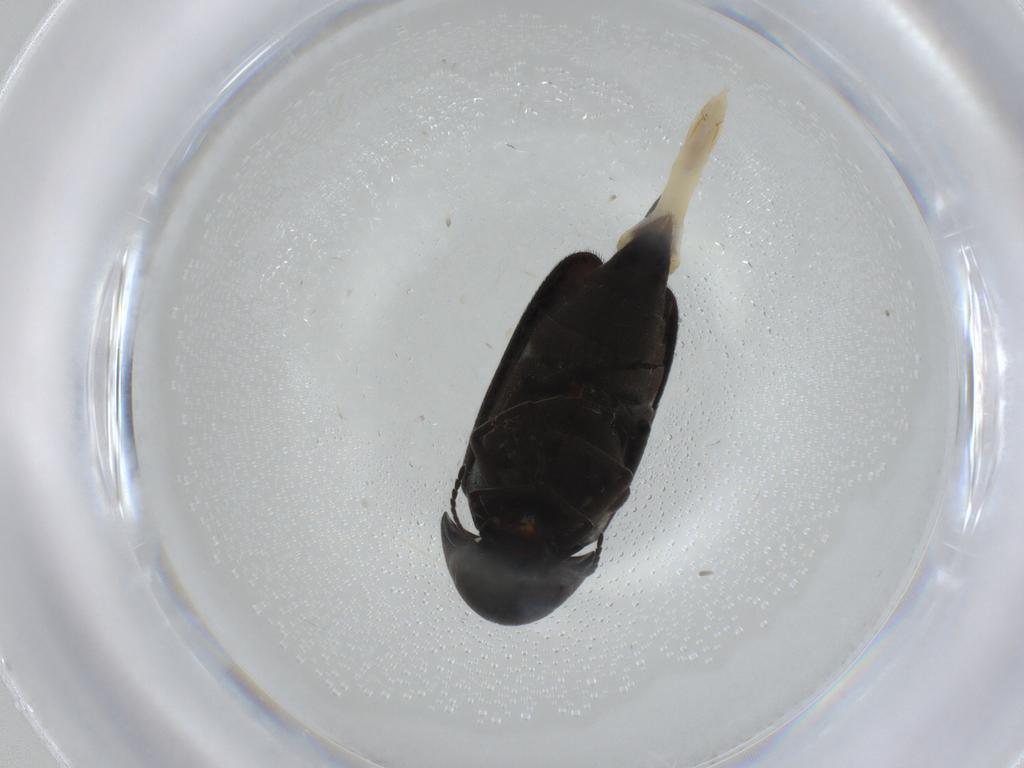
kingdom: Animalia
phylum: Arthropoda
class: Insecta
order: Coleoptera
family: Mordellidae
